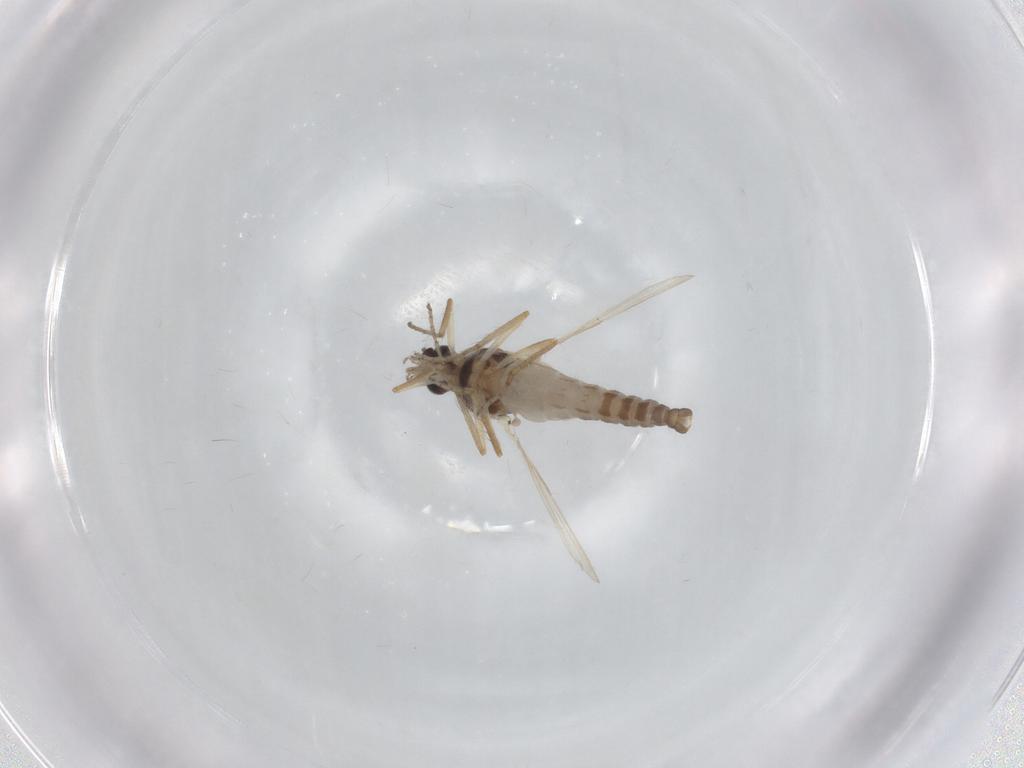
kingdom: Animalia
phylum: Arthropoda
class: Insecta
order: Diptera
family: Ceratopogonidae
